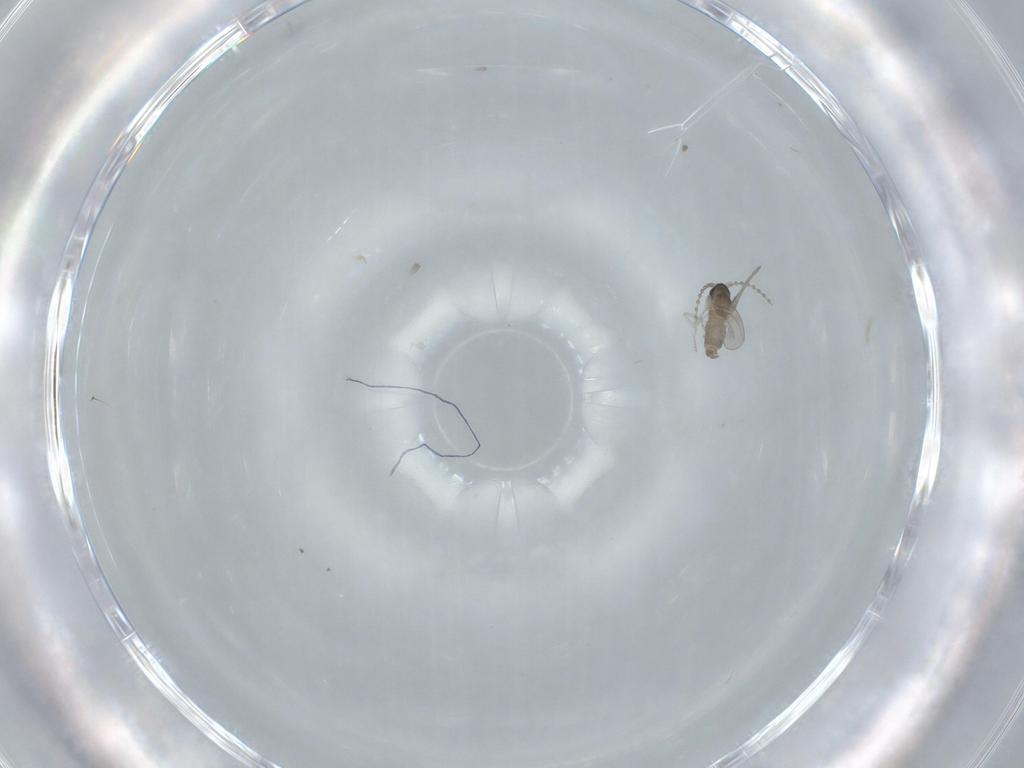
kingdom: Animalia
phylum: Arthropoda
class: Insecta
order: Diptera
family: Cecidomyiidae
